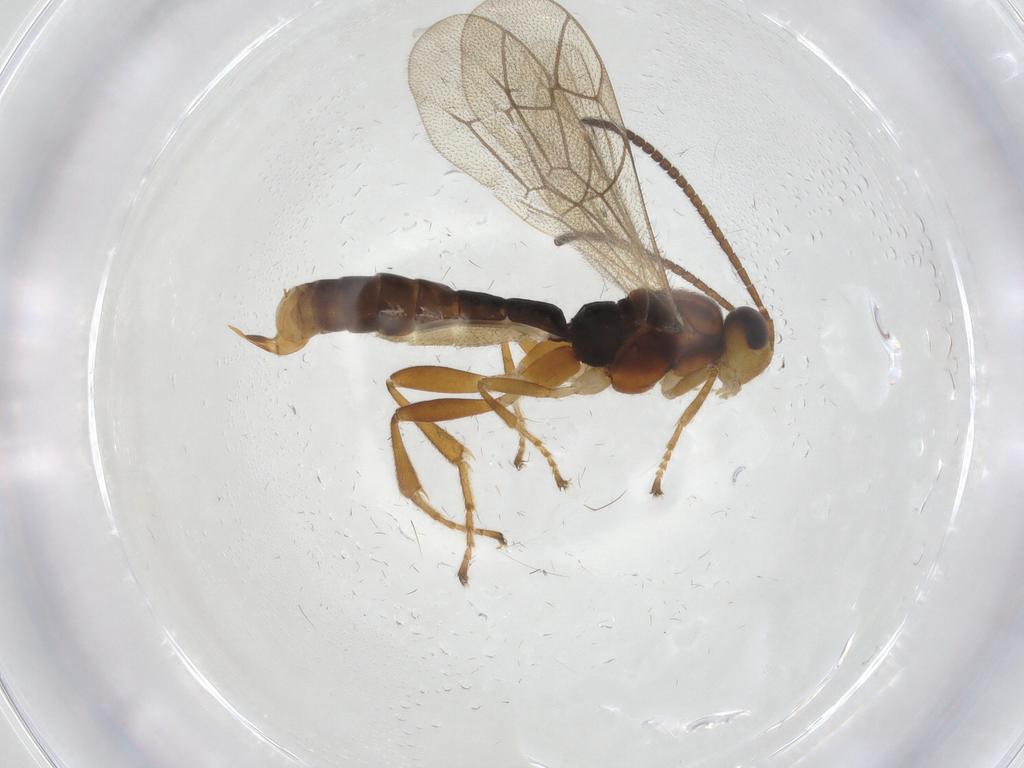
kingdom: Animalia
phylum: Arthropoda
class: Insecta
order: Hymenoptera
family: Ichneumonidae
